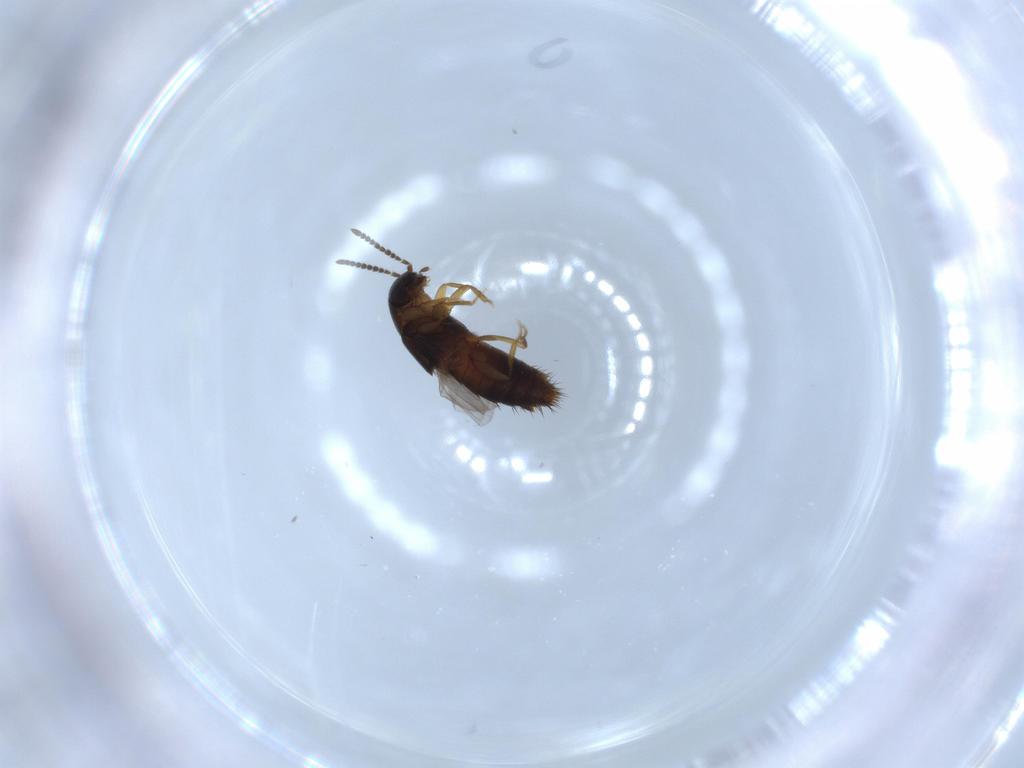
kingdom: Animalia
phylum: Arthropoda
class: Insecta
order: Coleoptera
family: Staphylinidae
